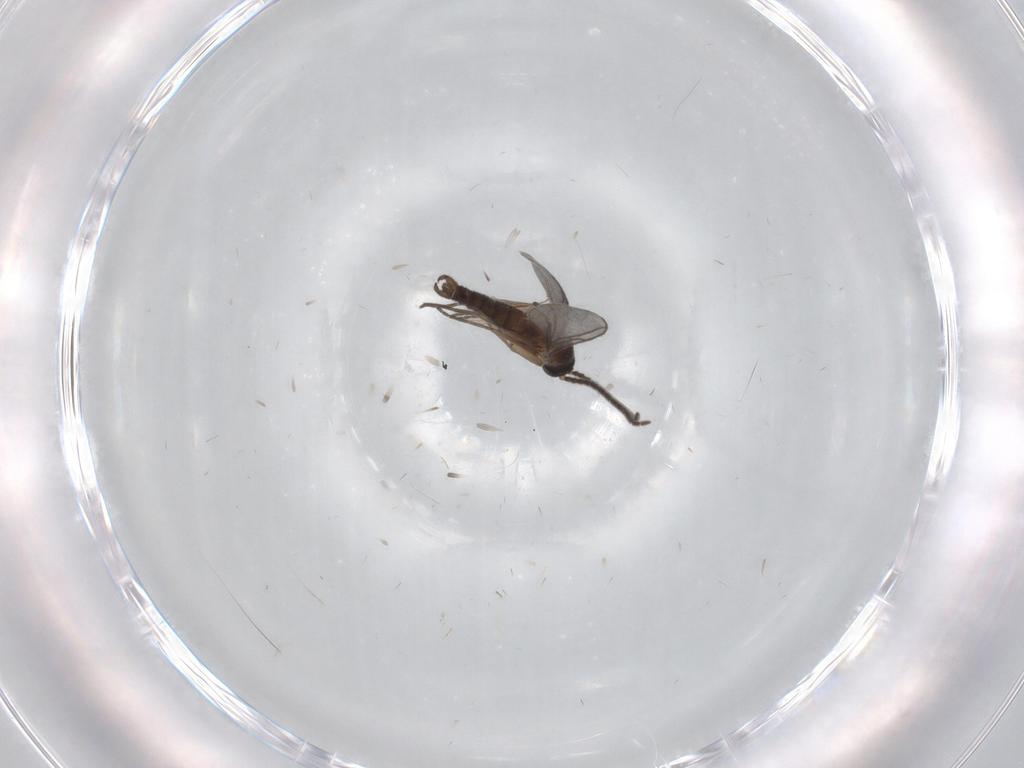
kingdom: Animalia
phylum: Arthropoda
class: Insecta
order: Diptera
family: Sciaridae
